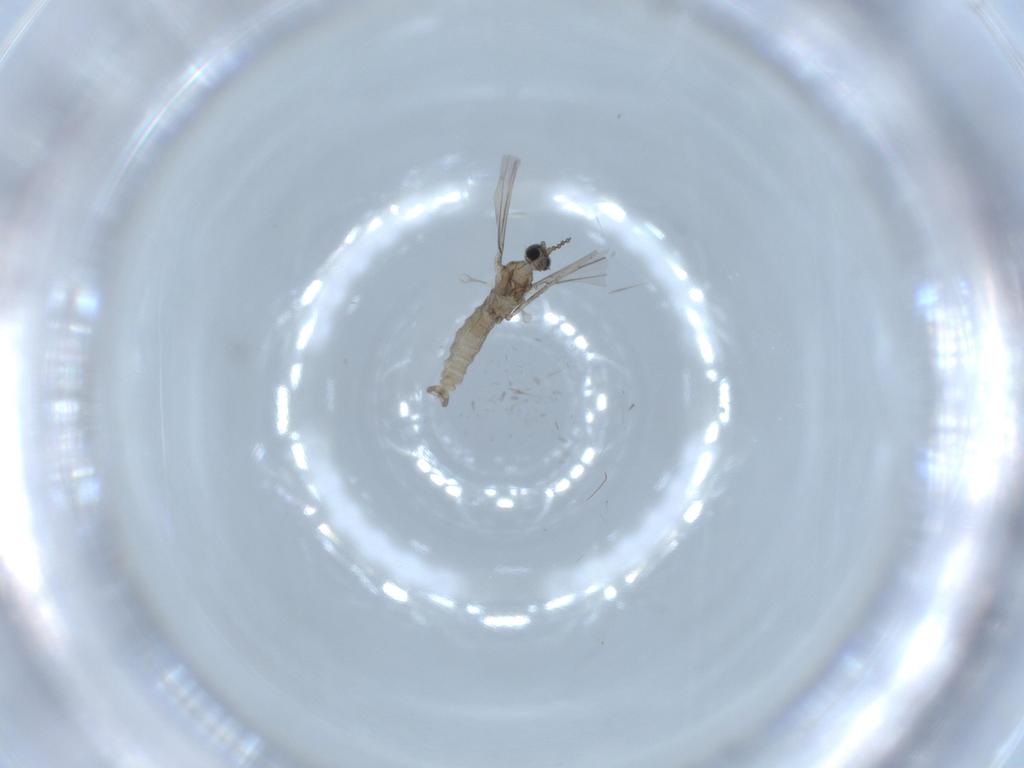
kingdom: Animalia
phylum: Arthropoda
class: Insecta
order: Diptera
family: Cecidomyiidae
